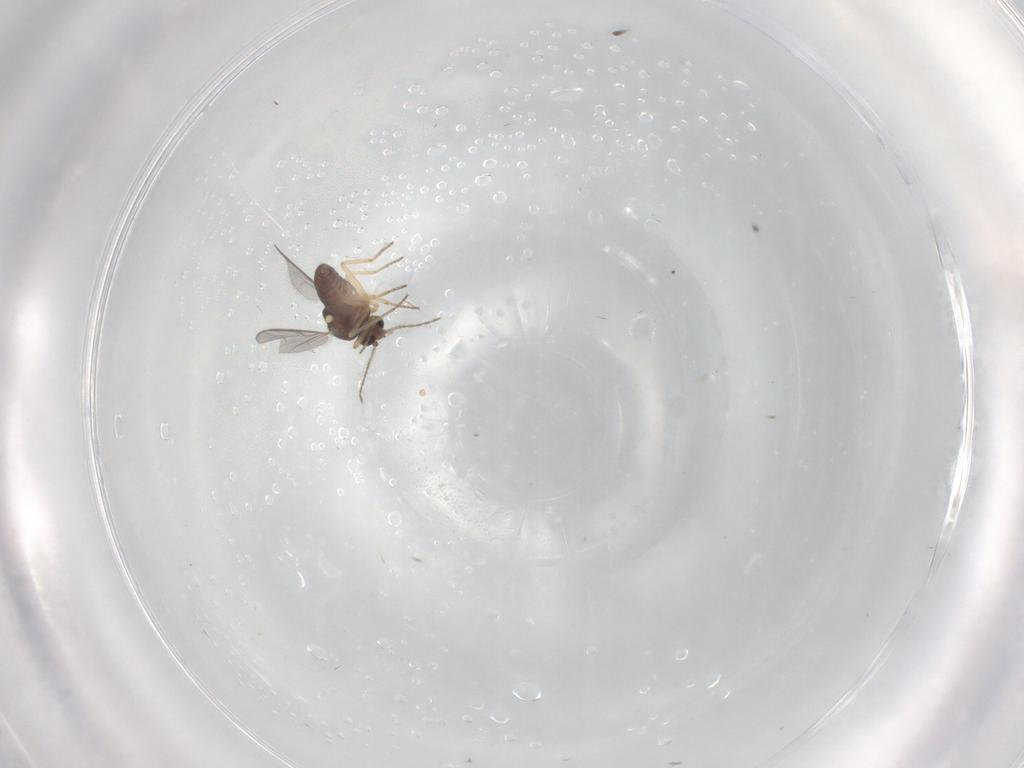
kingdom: Animalia
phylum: Arthropoda
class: Insecta
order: Diptera
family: Ceratopogonidae
